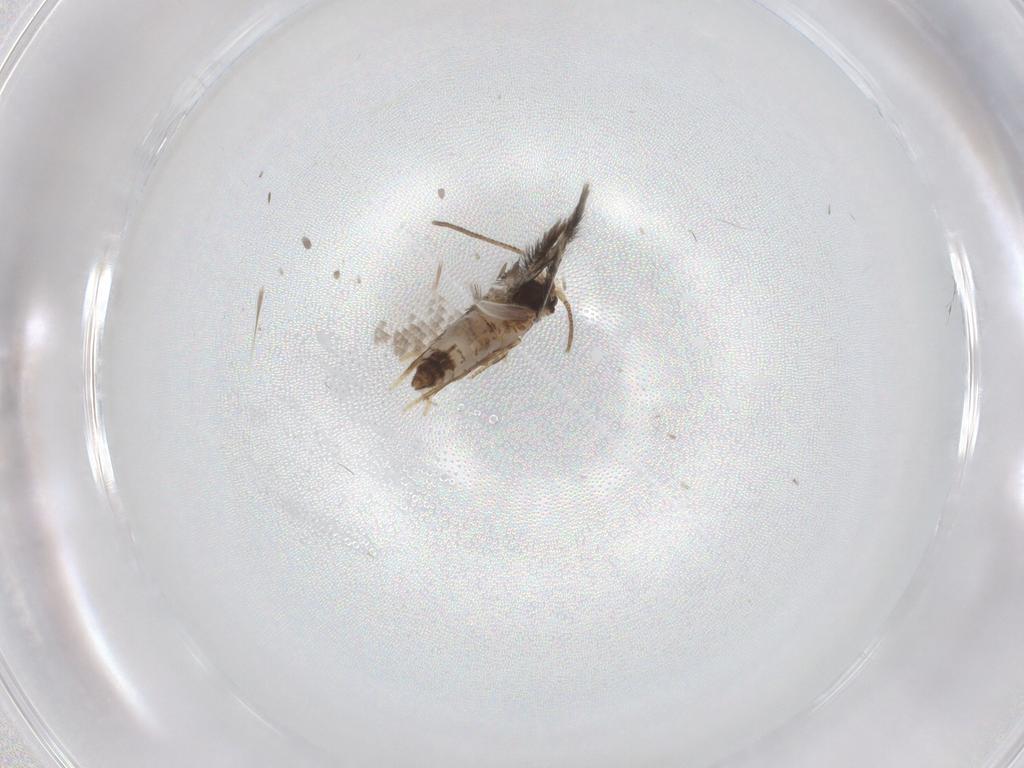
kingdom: Animalia
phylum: Arthropoda
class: Insecta
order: Lepidoptera
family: Nepticulidae
